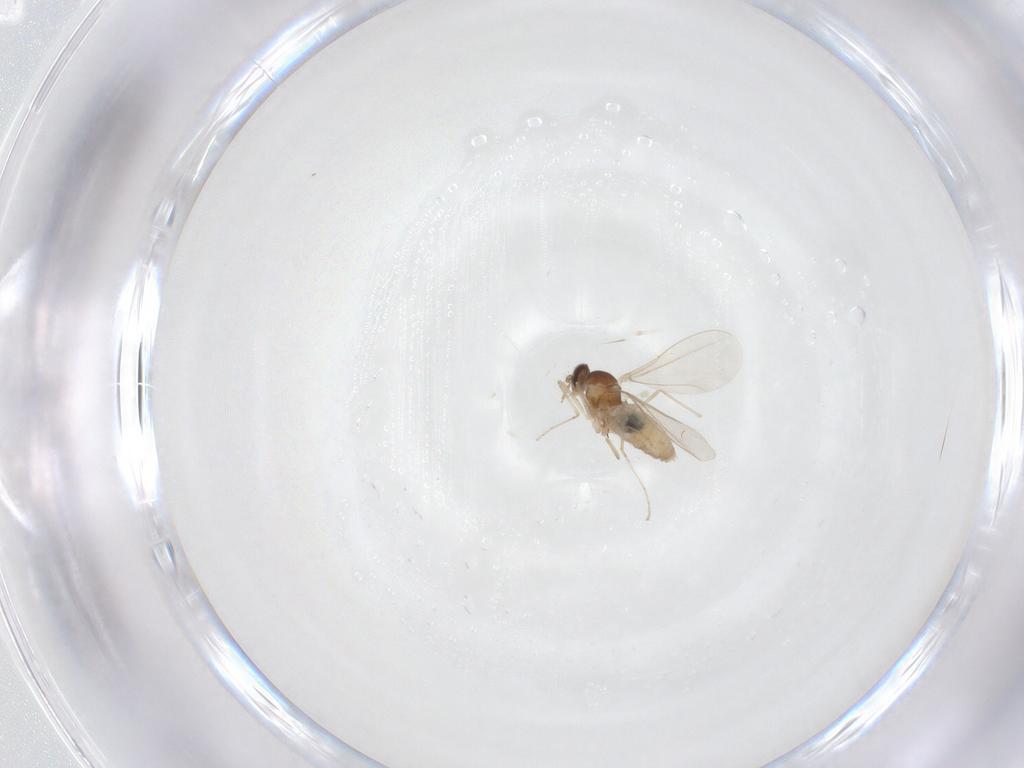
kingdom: Animalia
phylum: Arthropoda
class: Insecta
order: Diptera
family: Cecidomyiidae
